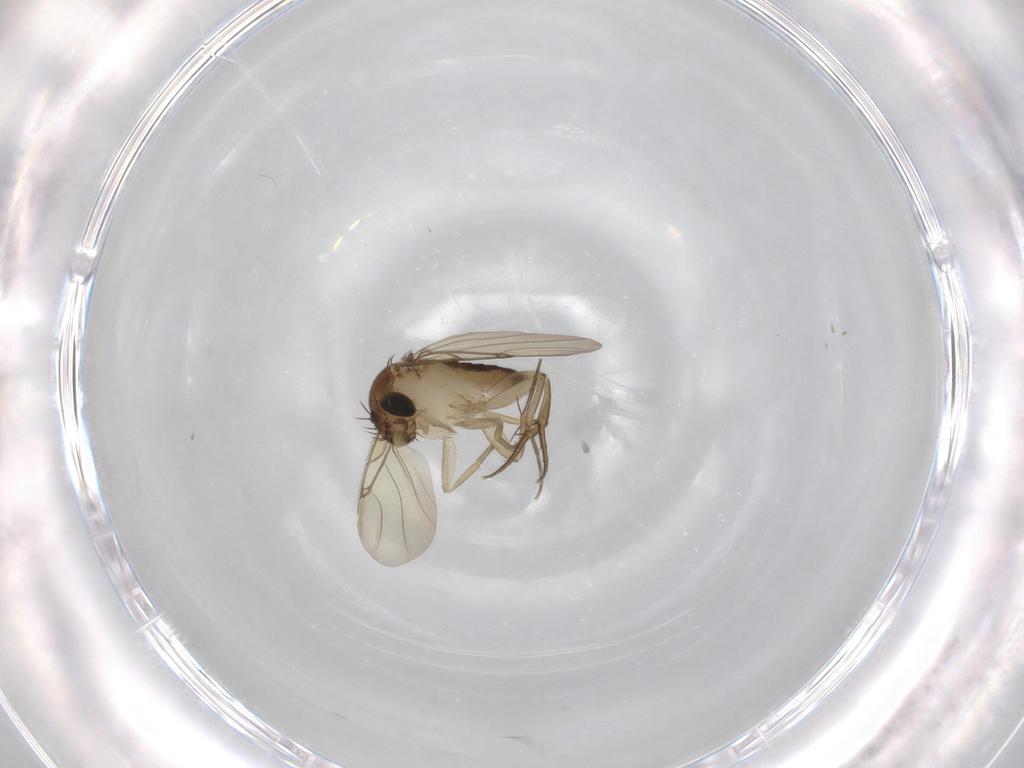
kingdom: Animalia
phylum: Arthropoda
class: Insecta
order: Diptera
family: Phoridae
